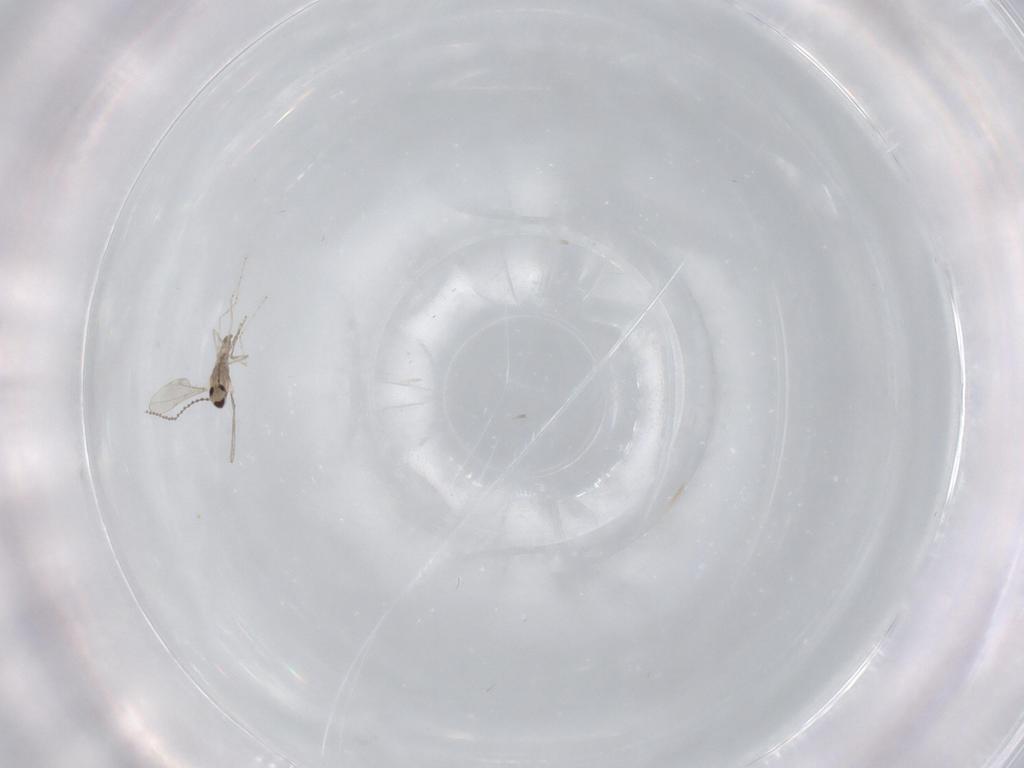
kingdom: Animalia
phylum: Arthropoda
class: Insecta
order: Diptera
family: Cecidomyiidae
